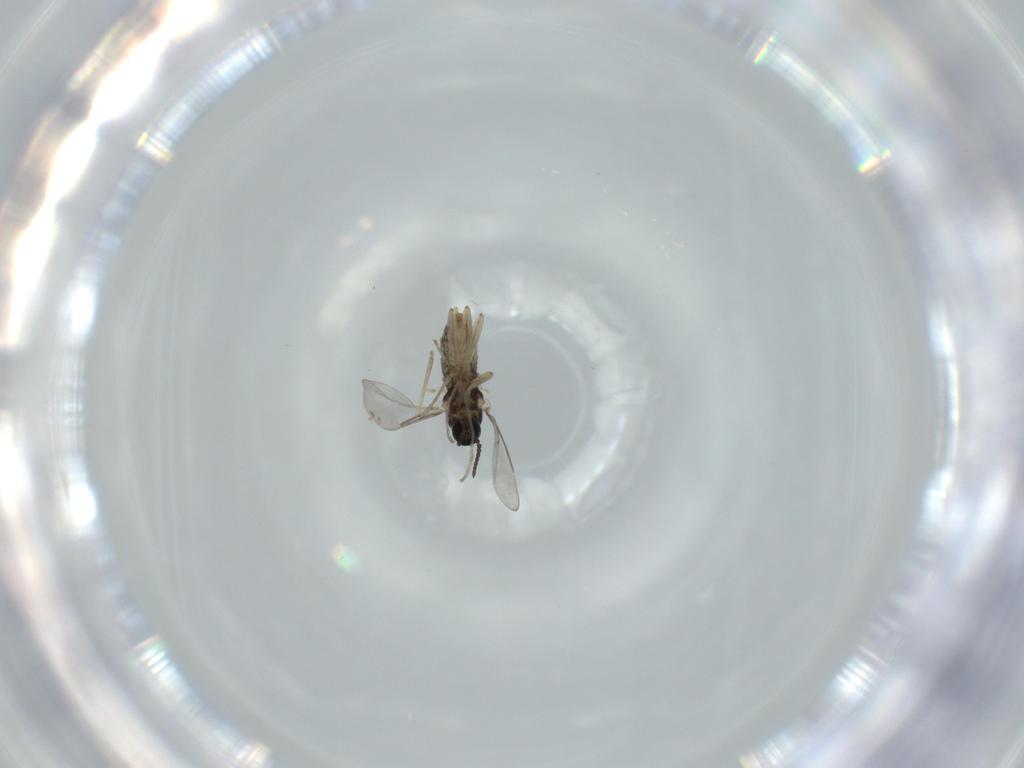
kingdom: Animalia
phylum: Arthropoda
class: Insecta
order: Diptera
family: Cecidomyiidae
